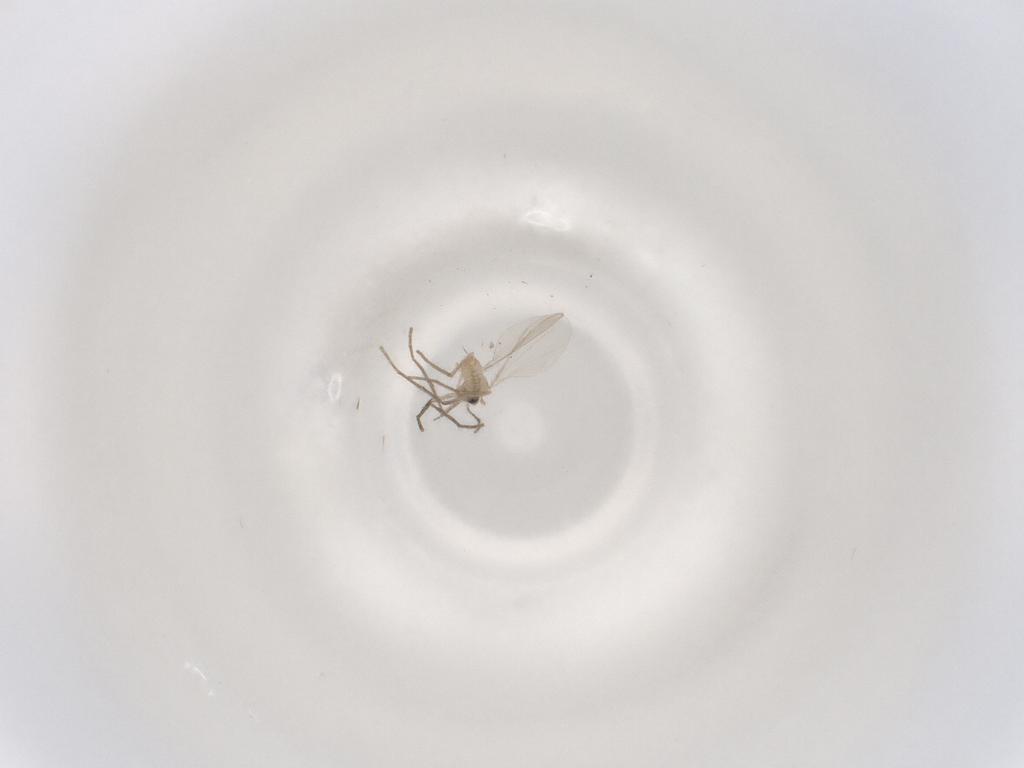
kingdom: Animalia
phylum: Arthropoda
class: Insecta
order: Diptera
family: Cecidomyiidae
